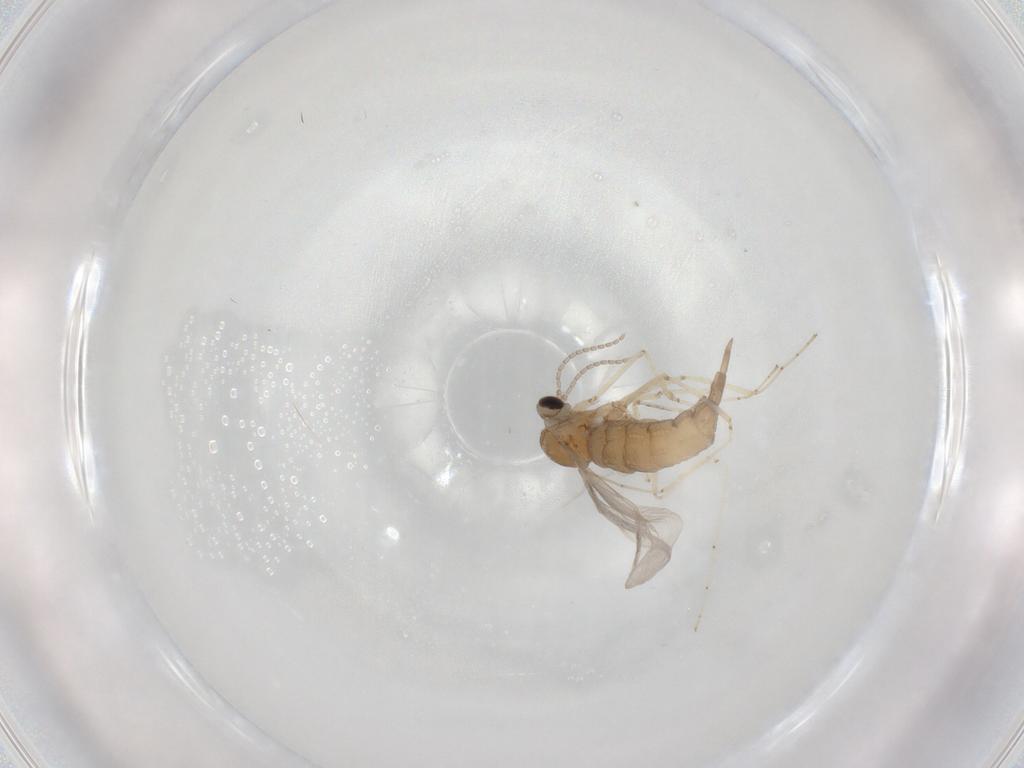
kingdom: Animalia
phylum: Arthropoda
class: Insecta
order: Diptera
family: Cecidomyiidae
